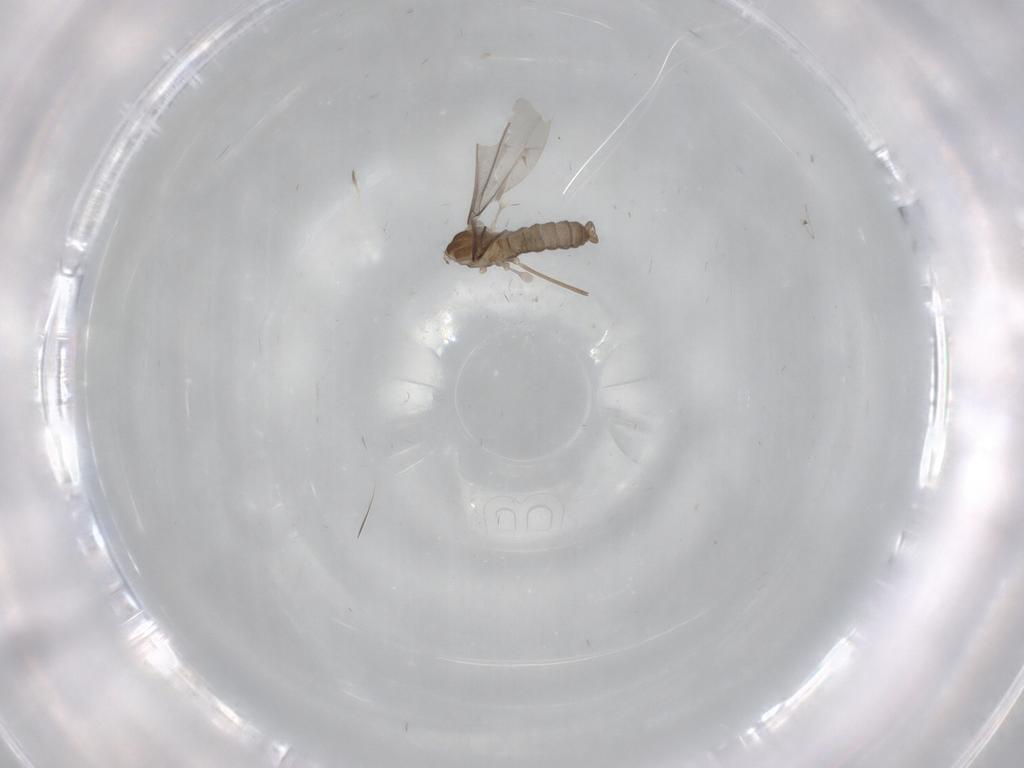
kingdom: Animalia
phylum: Arthropoda
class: Insecta
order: Diptera
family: Cecidomyiidae
